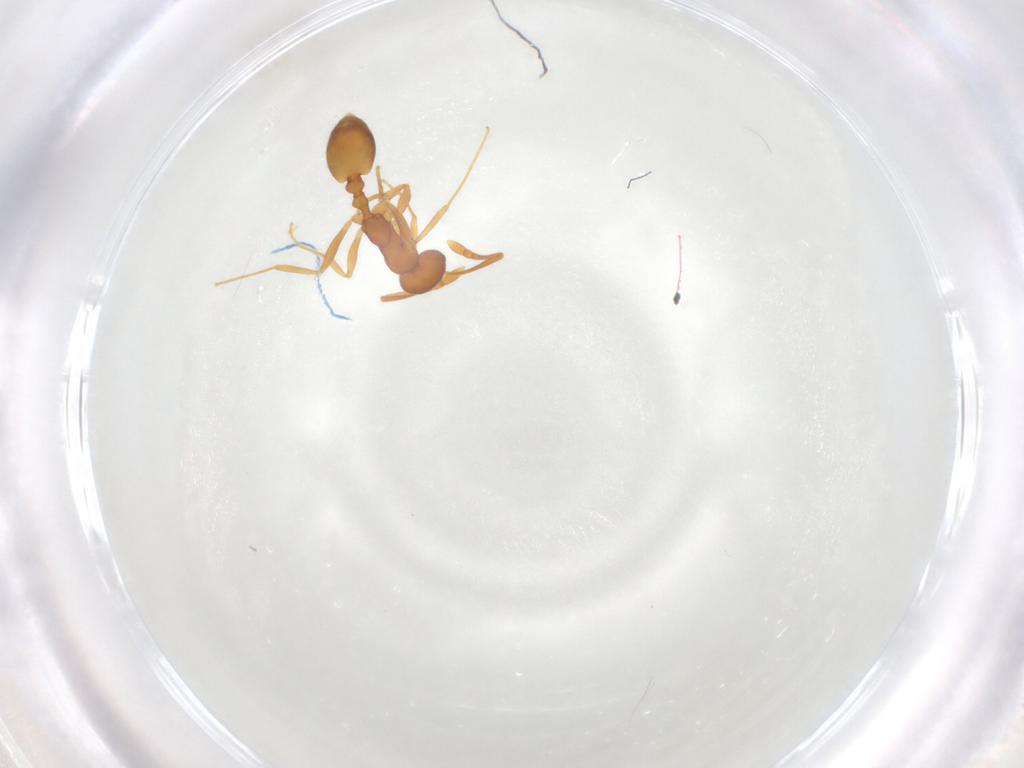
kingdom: Animalia
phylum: Arthropoda
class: Insecta
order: Hymenoptera
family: Formicidae
